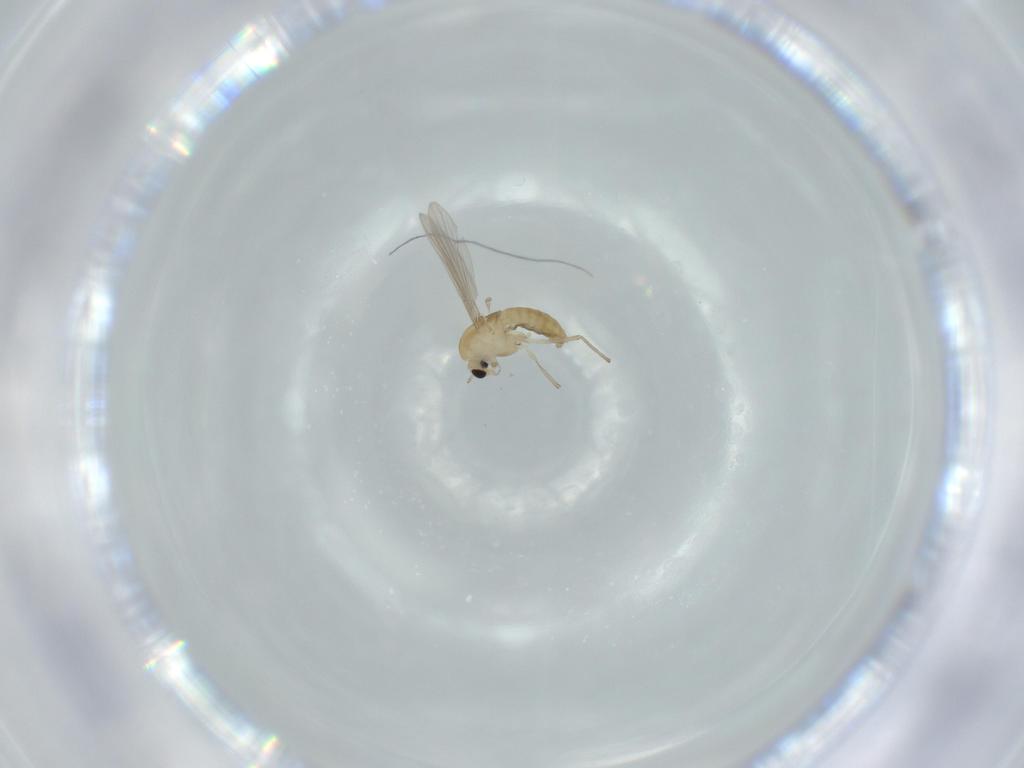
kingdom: Animalia
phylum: Arthropoda
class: Insecta
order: Diptera
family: Chironomidae
